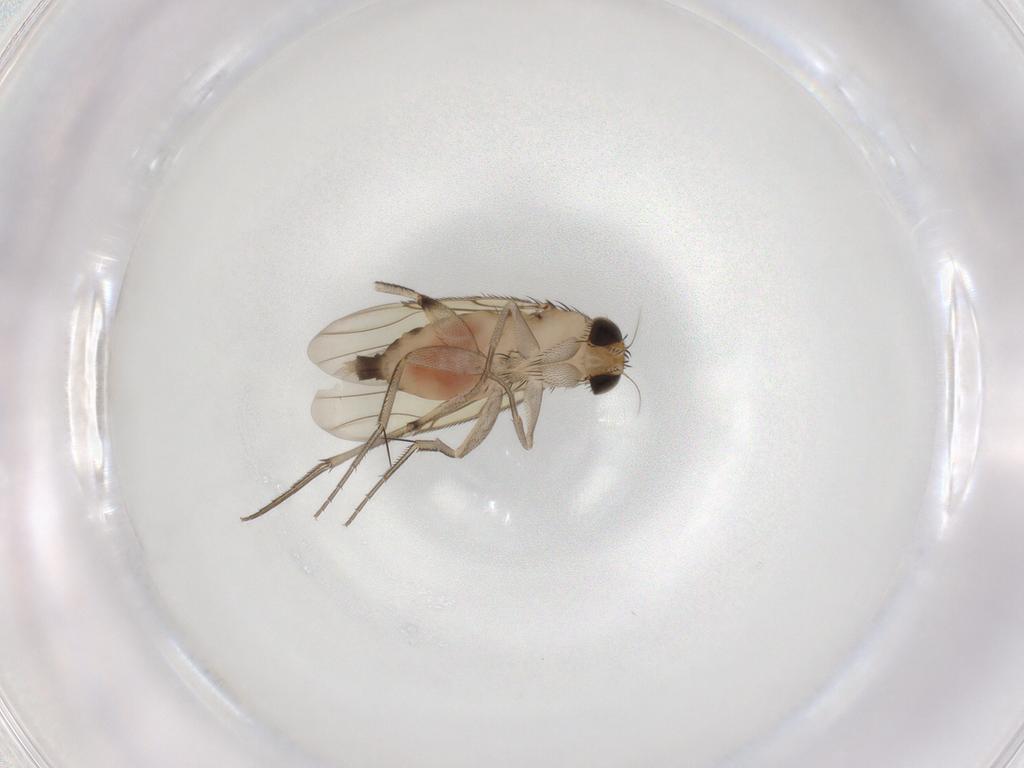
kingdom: Animalia
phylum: Arthropoda
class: Insecta
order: Diptera
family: Phoridae
